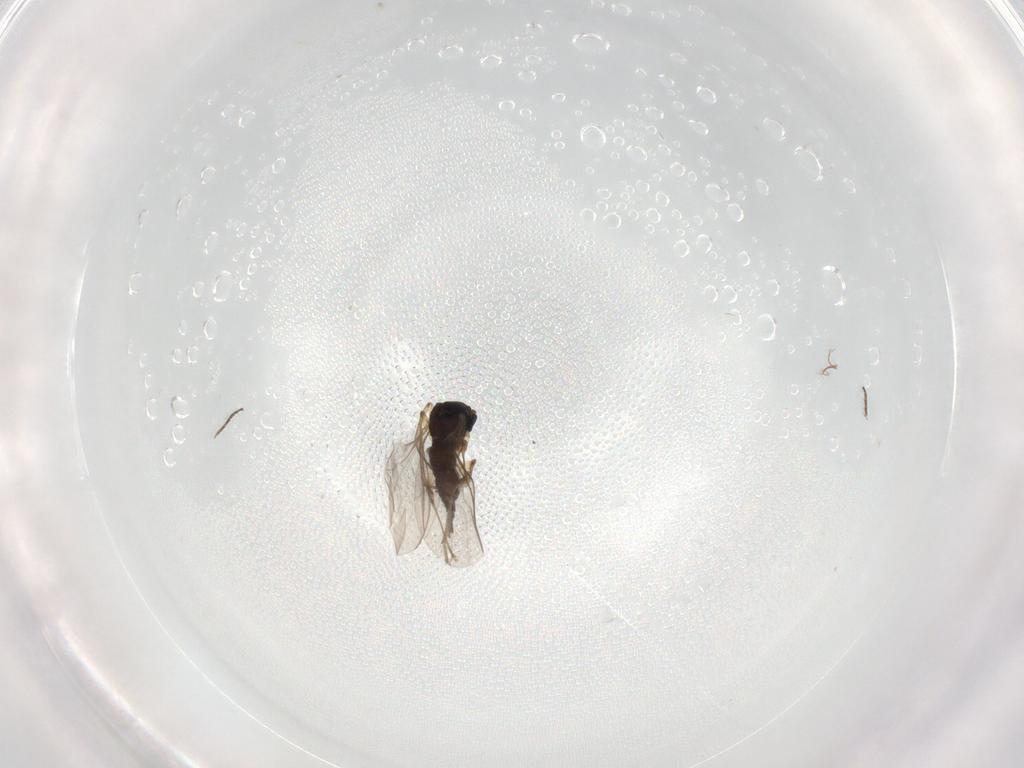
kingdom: Animalia
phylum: Arthropoda
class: Insecta
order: Diptera
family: Sciaridae
